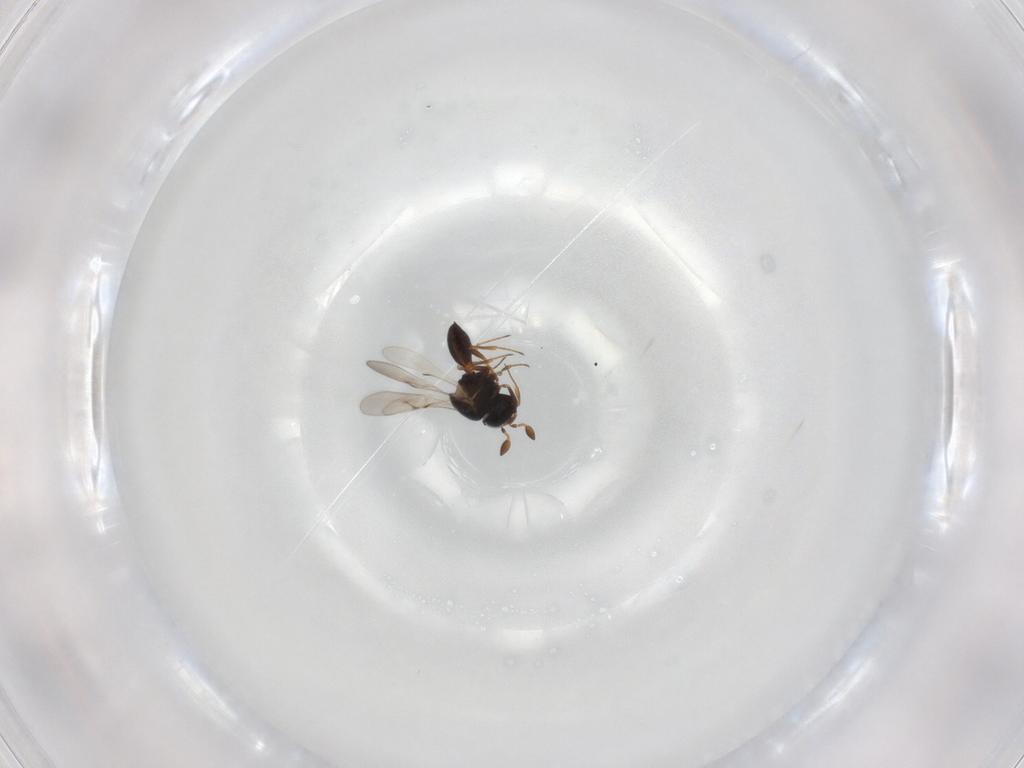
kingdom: Animalia
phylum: Arthropoda
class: Insecta
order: Hymenoptera
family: Scelionidae
